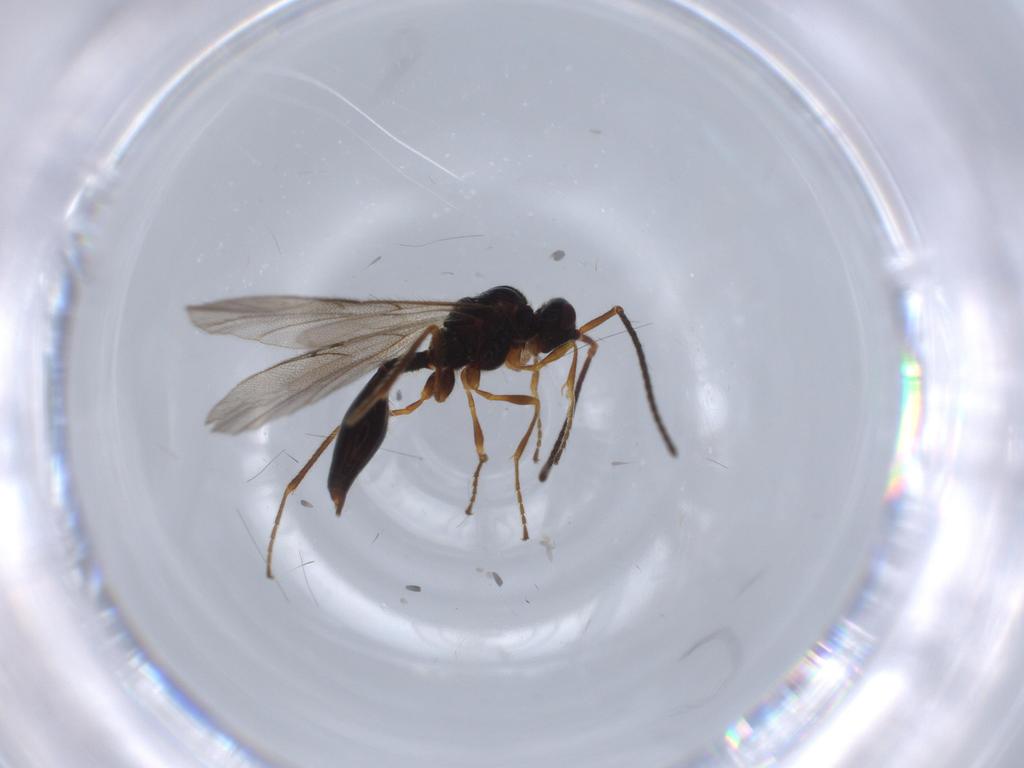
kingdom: Animalia
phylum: Arthropoda
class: Insecta
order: Hymenoptera
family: Diapriidae
